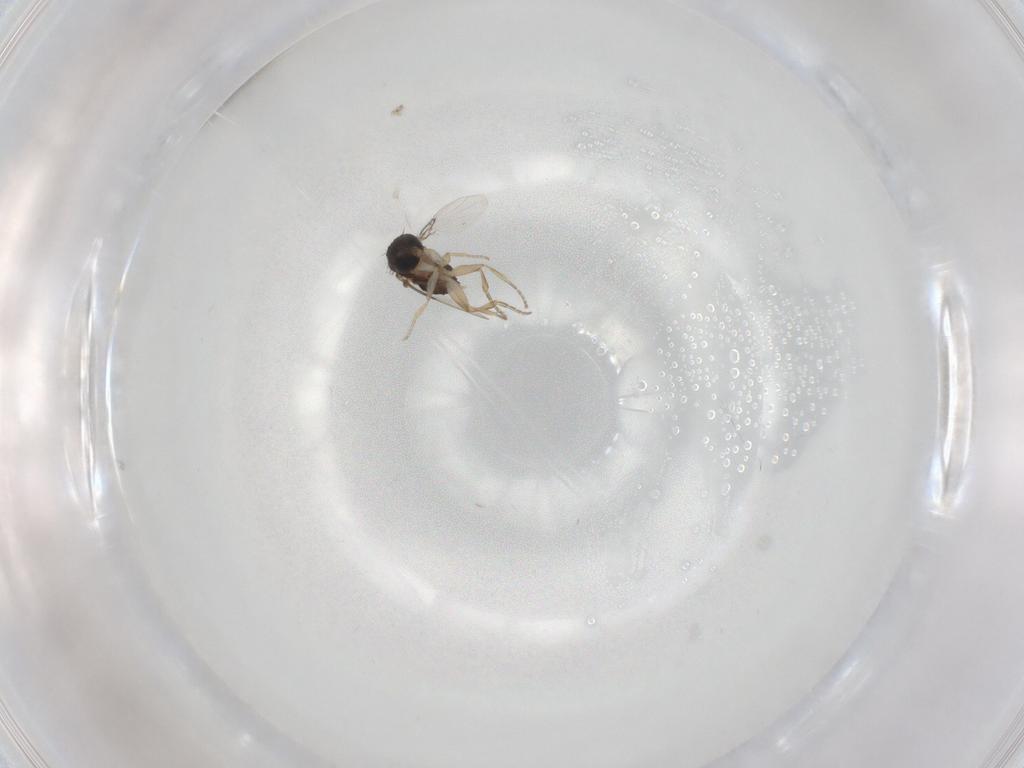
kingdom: Animalia
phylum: Arthropoda
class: Insecta
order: Diptera
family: Phoridae
